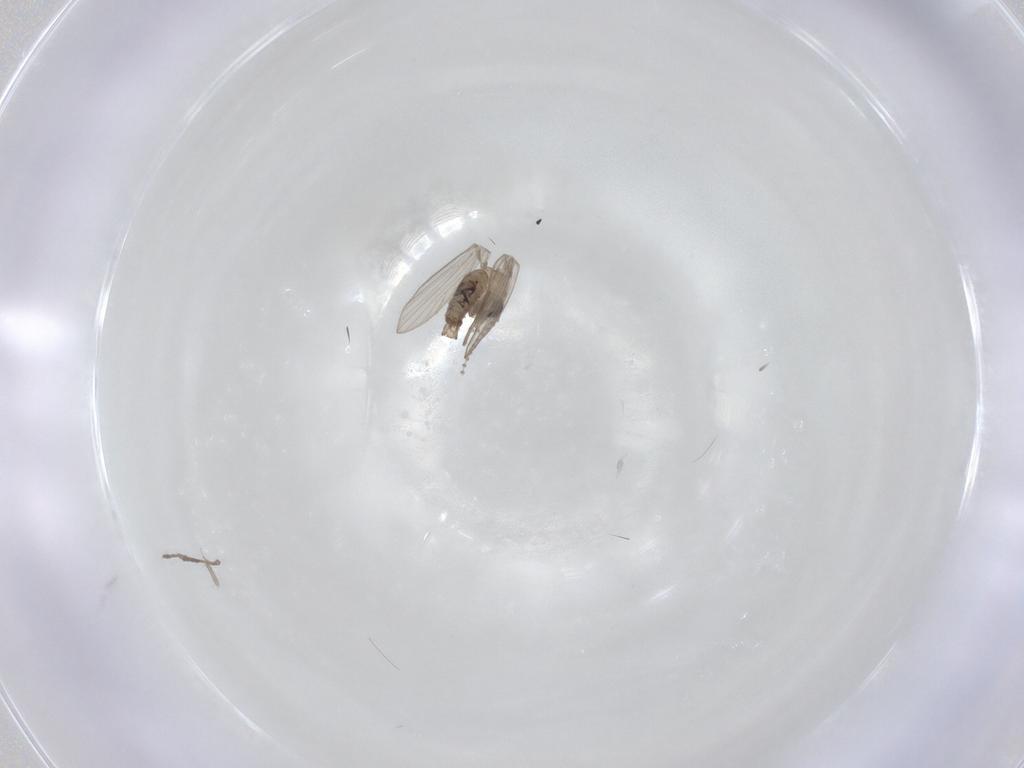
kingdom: Animalia
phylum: Arthropoda
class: Insecta
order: Diptera
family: Psychodidae
